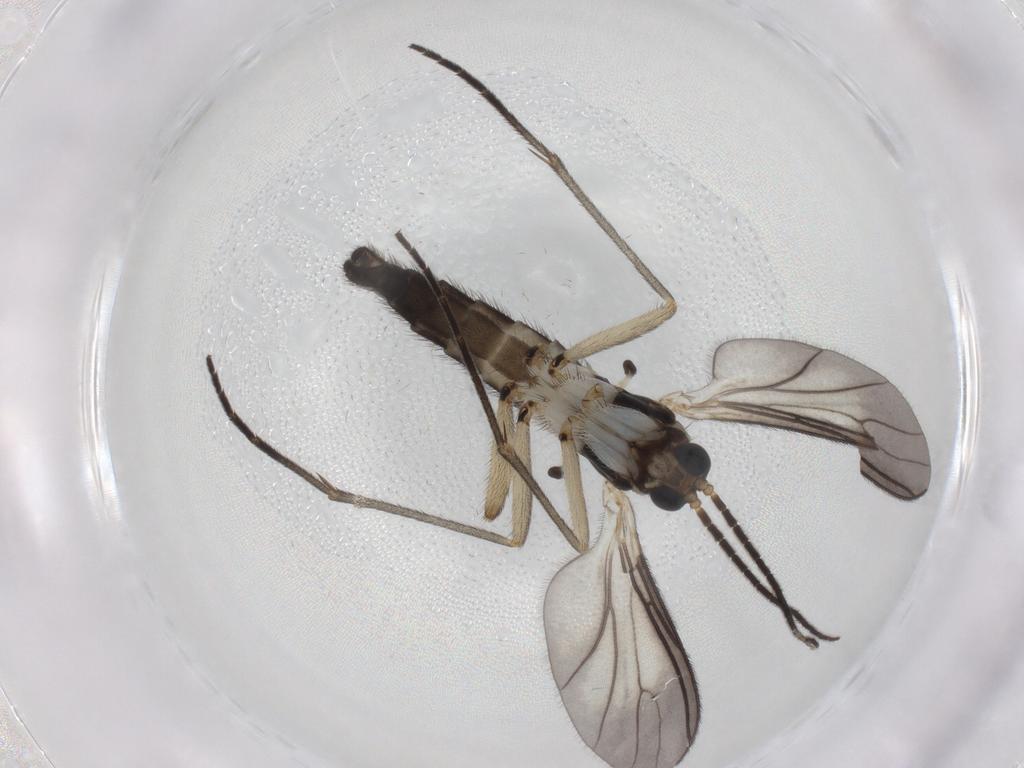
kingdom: Animalia
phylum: Arthropoda
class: Insecta
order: Diptera
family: Sciaridae
